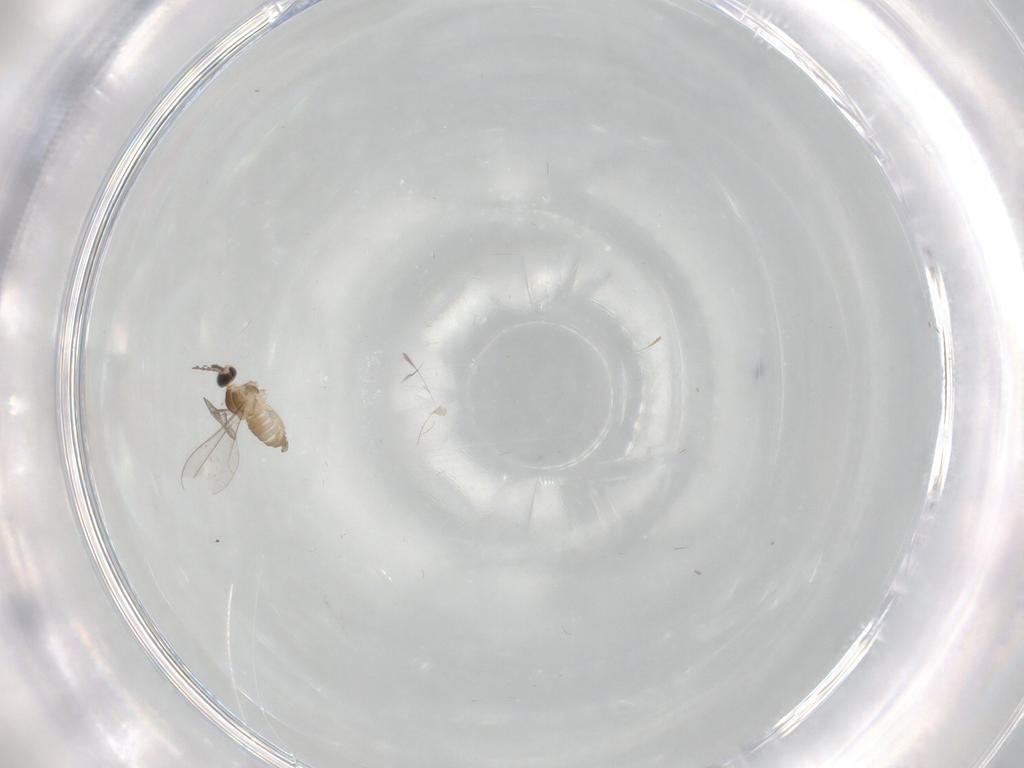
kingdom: Animalia
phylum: Arthropoda
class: Insecta
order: Diptera
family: Cecidomyiidae
